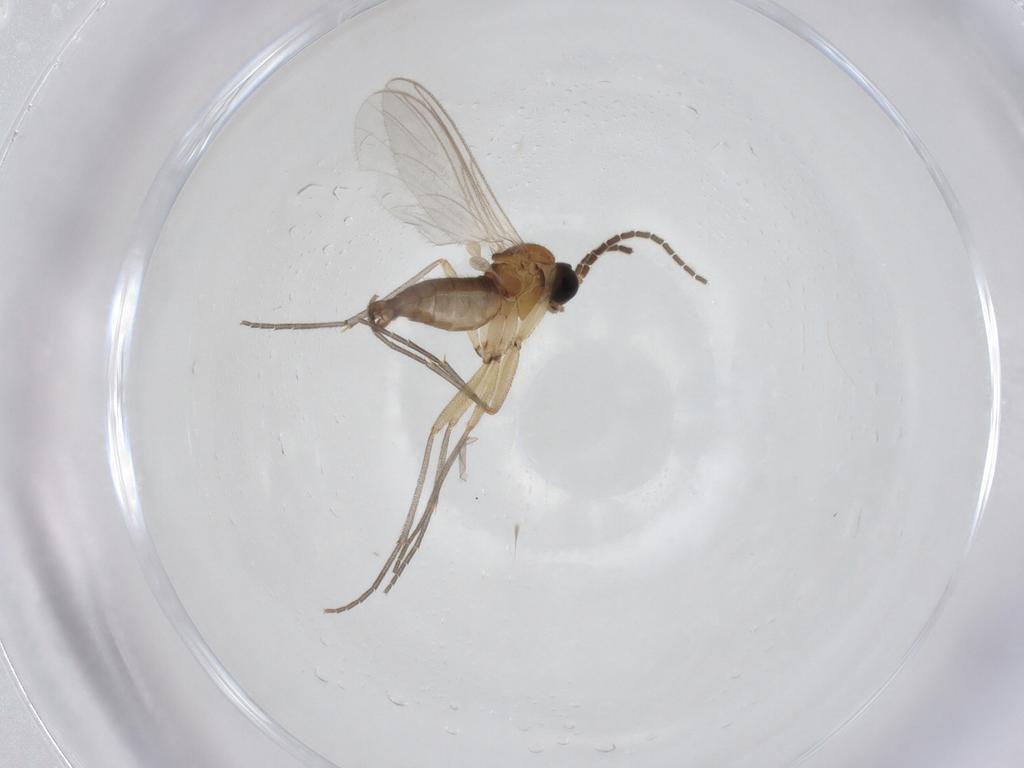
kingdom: Animalia
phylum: Arthropoda
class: Insecta
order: Diptera
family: Sciaridae
